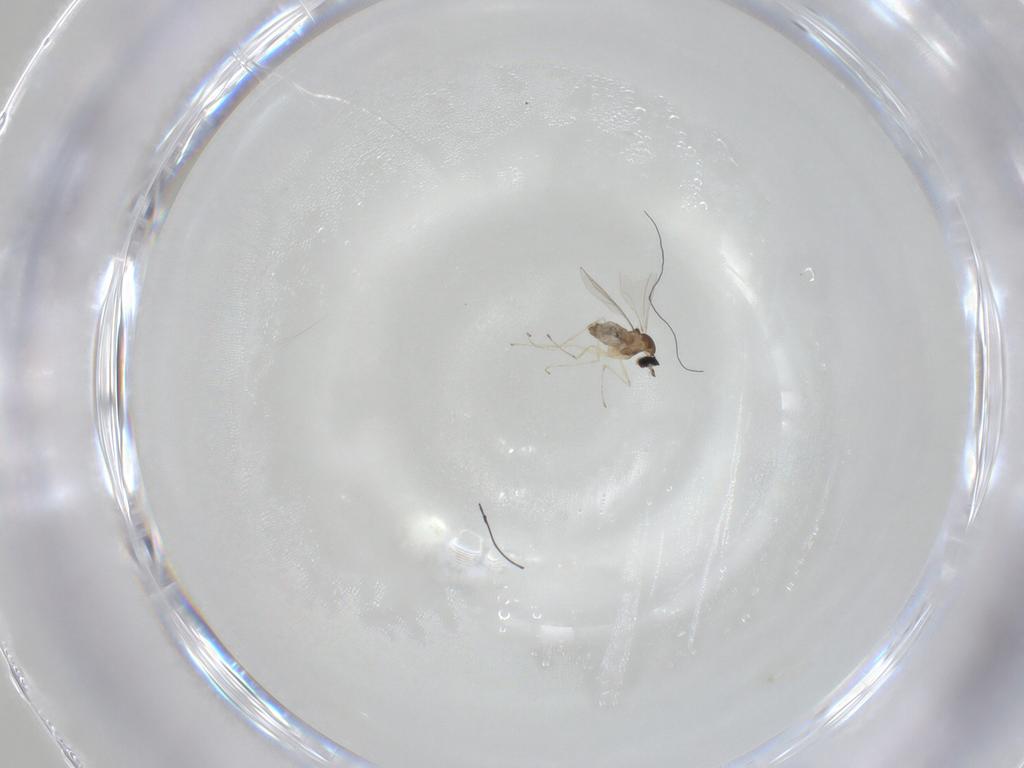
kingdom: Animalia
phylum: Arthropoda
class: Insecta
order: Diptera
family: Cecidomyiidae
